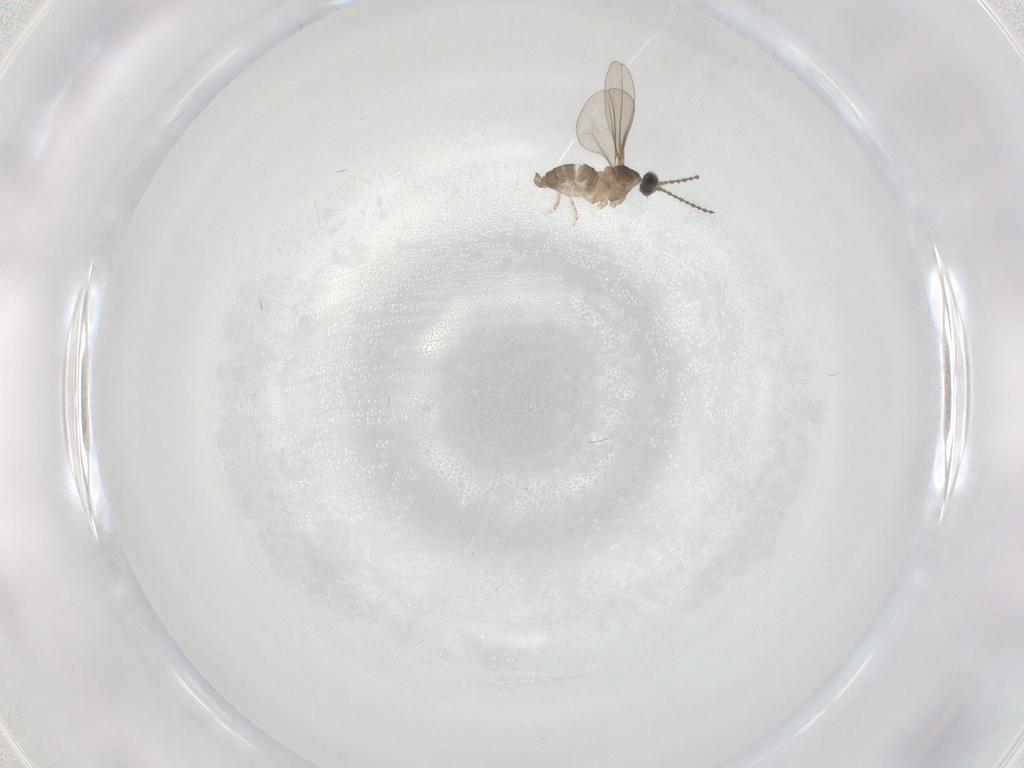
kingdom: Animalia
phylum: Arthropoda
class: Insecta
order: Diptera
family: Cecidomyiidae
